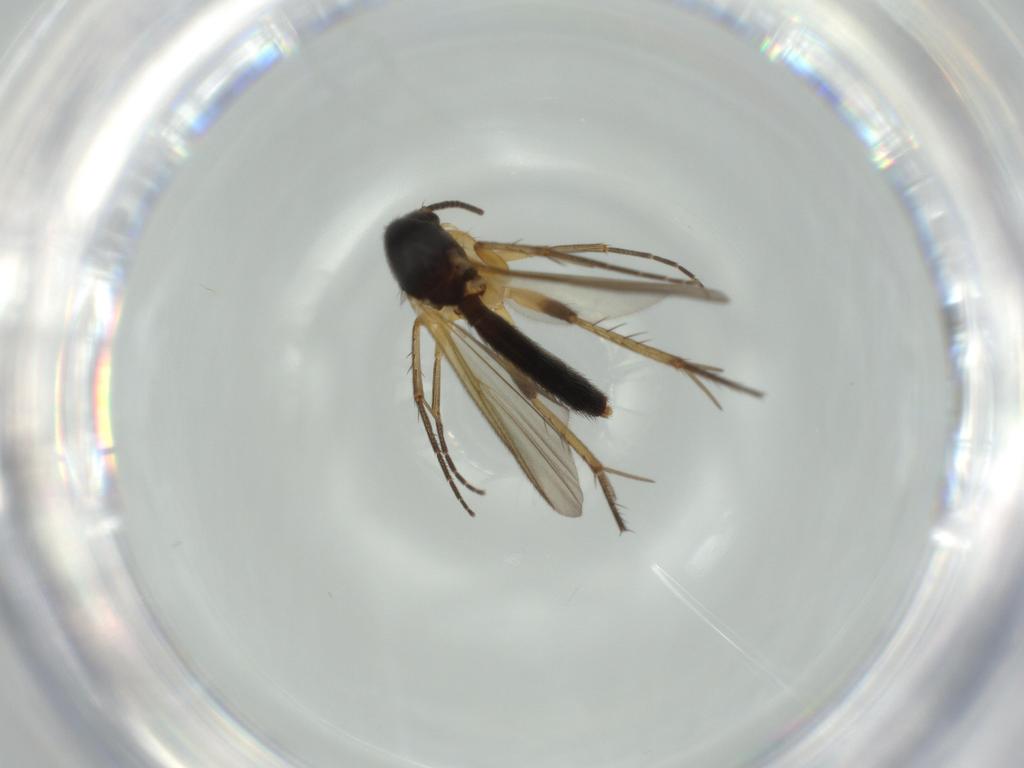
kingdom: Animalia
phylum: Arthropoda
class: Insecta
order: Diptera
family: Mycetophilidae
